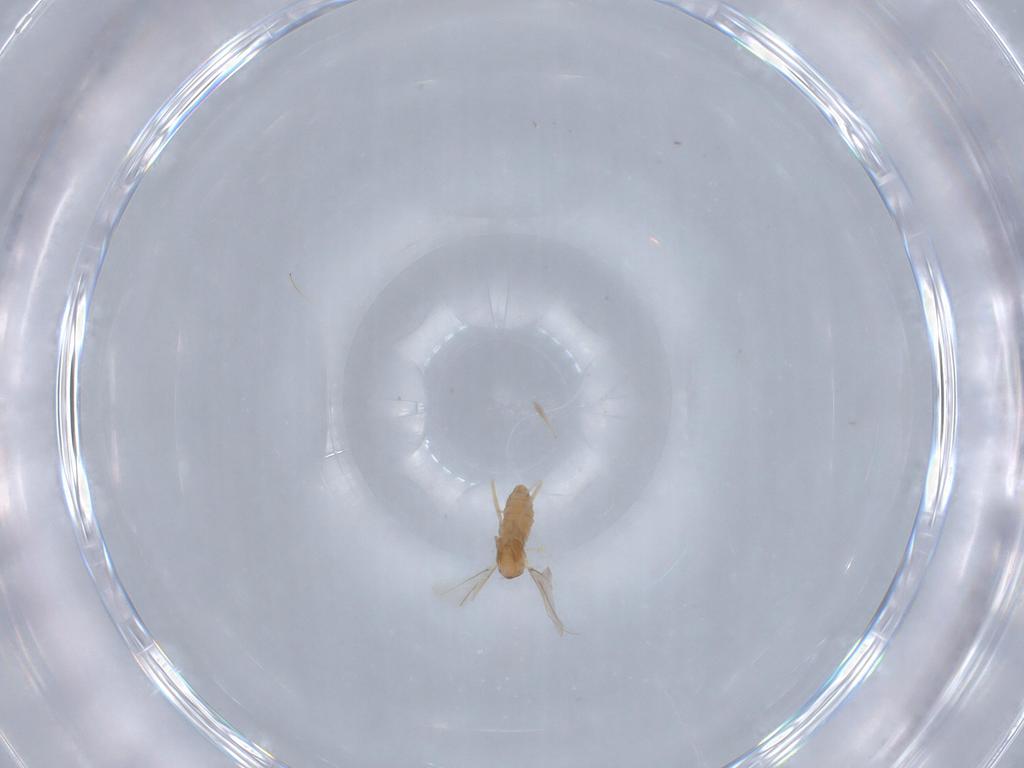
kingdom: Animalia
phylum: Arthropoda
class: Insecta
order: Diptera
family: Cecidomyiidae
